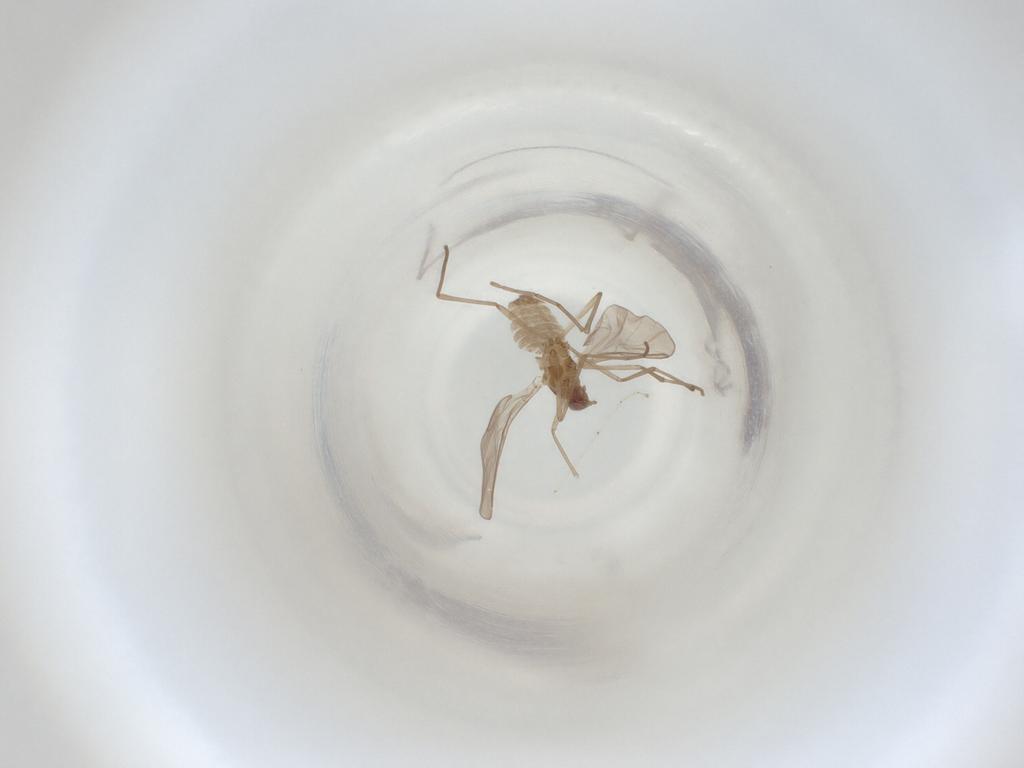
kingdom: Animalia
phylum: Arthropoda
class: Insecta
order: Diptera
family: Cecidomyiidae
